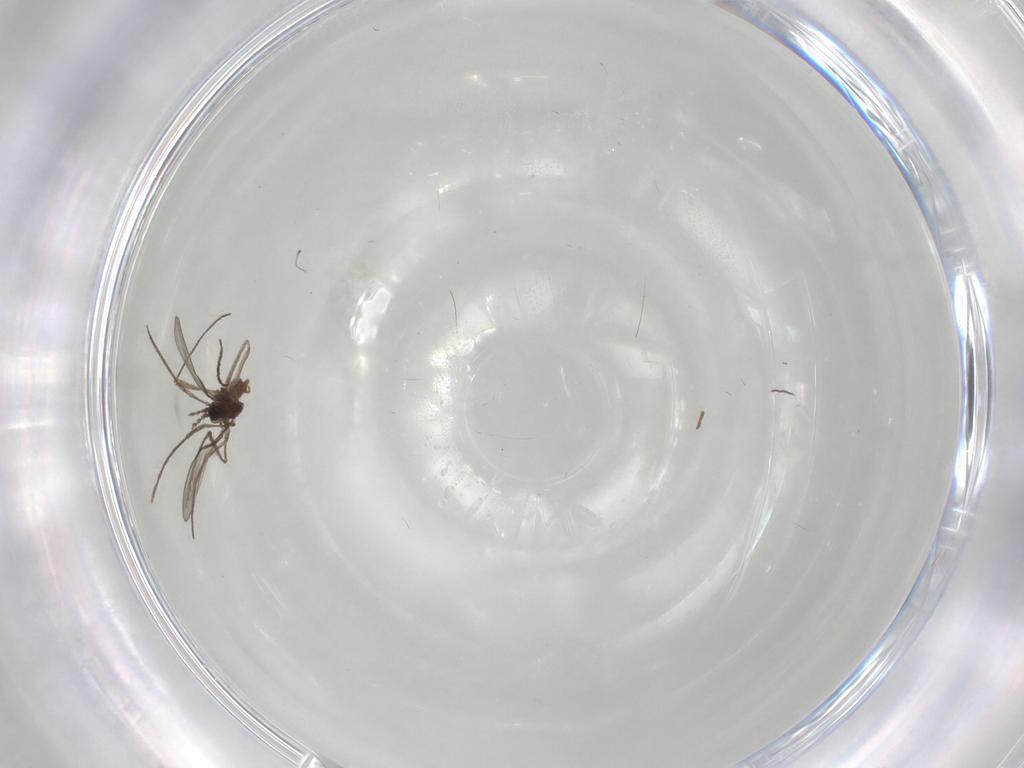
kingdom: Animalia
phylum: Arthropoda
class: Insecta
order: Diptera
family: Cecidomyiidae
